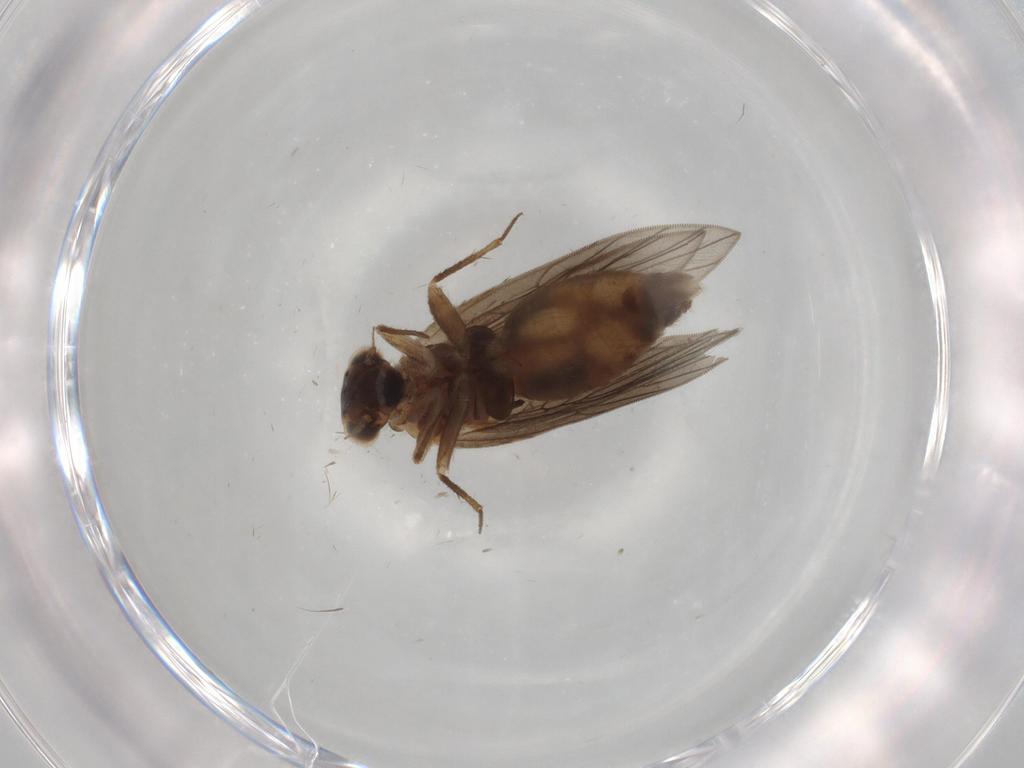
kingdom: Animalia
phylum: Arthropoda
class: Insecta
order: Psocodea
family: Lepidopsocidae
